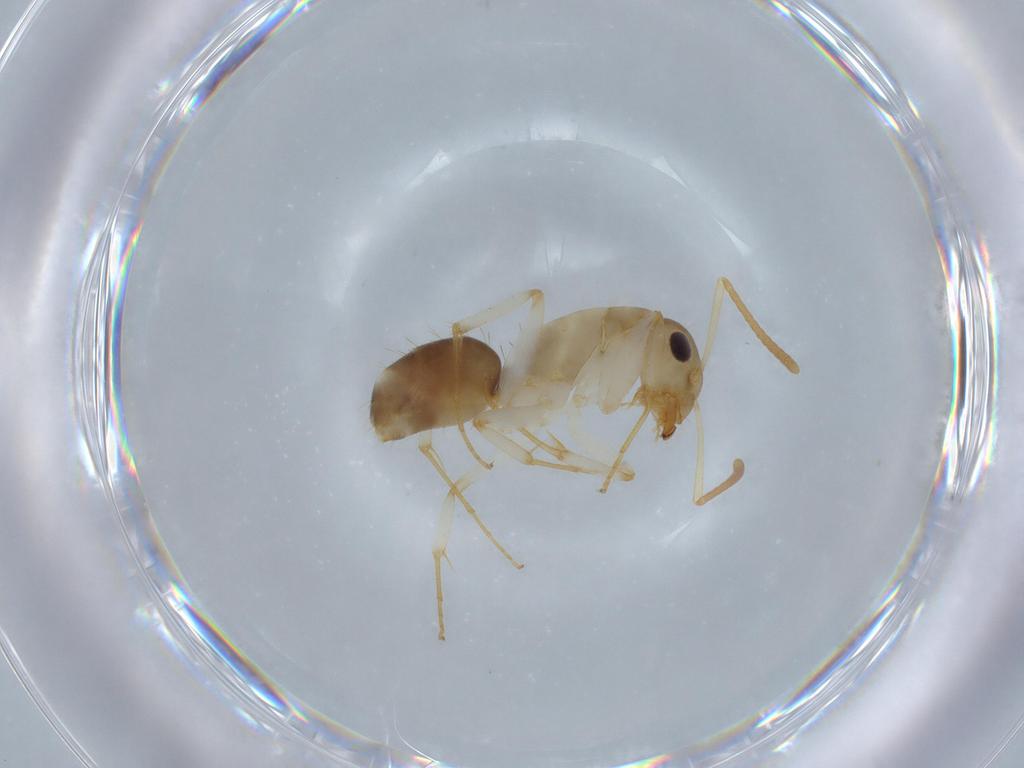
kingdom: Animalia
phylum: Arthropoda
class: Insecta
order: Hymenoptera
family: Formicidae
